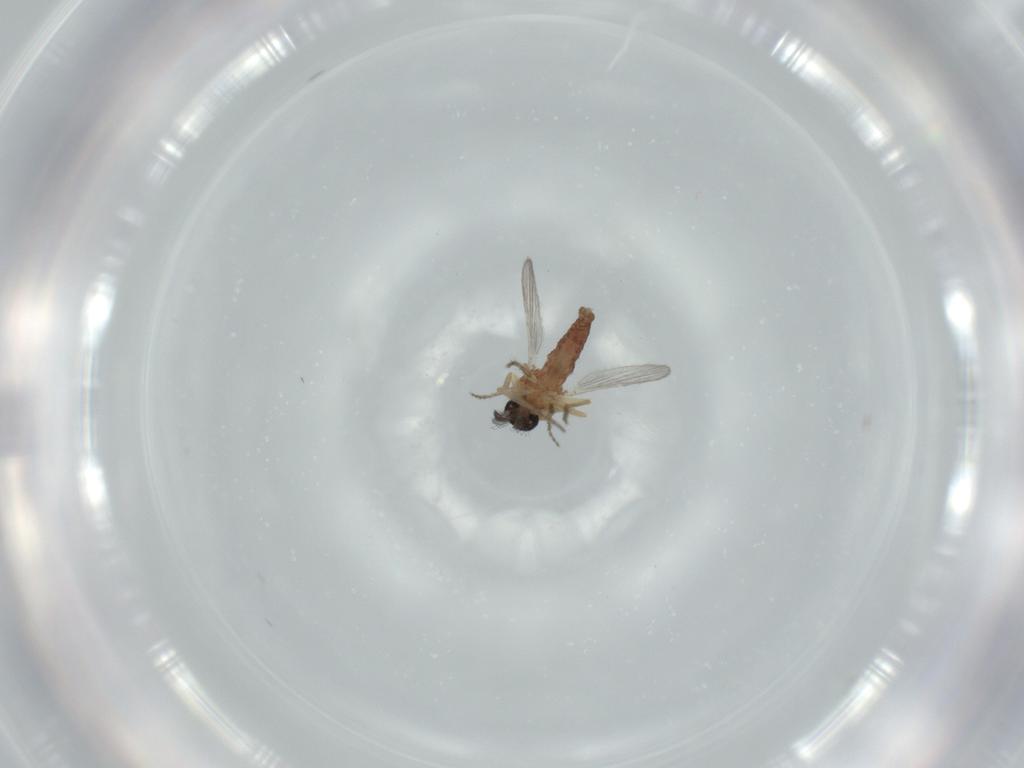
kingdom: Animalia
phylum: Arthropoda
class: Insecta
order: Diptera
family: Ceratopogonidae
